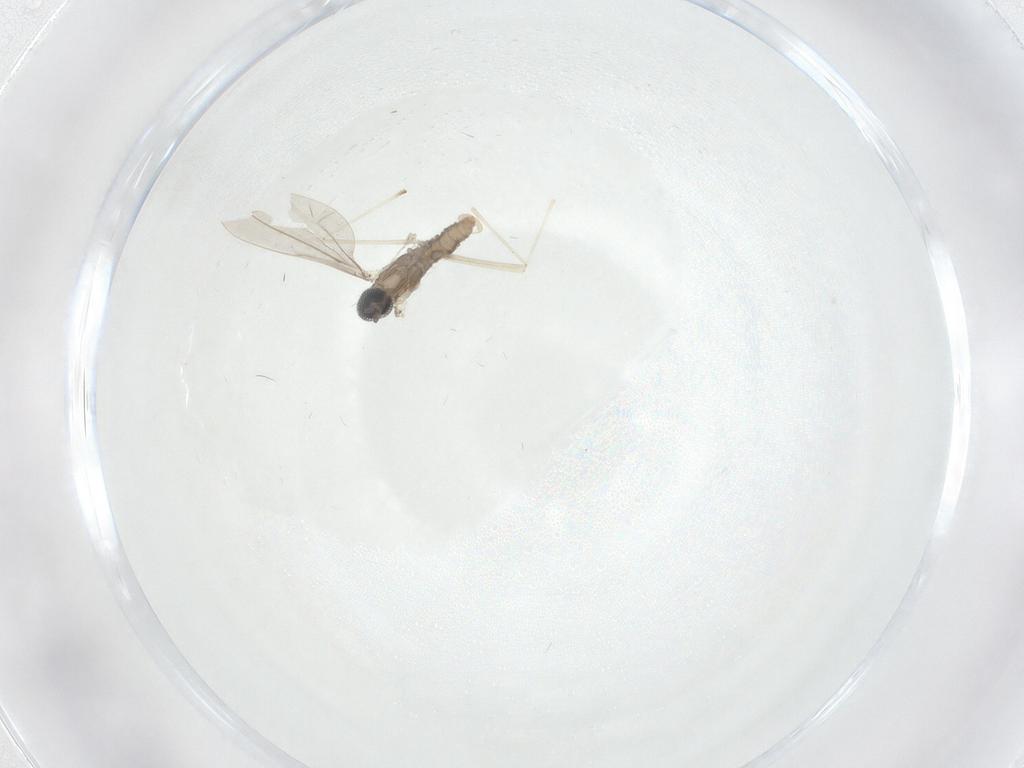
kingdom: Animalia
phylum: Arthropoda
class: Insecta
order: Diptera
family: Cecidomyiidae
